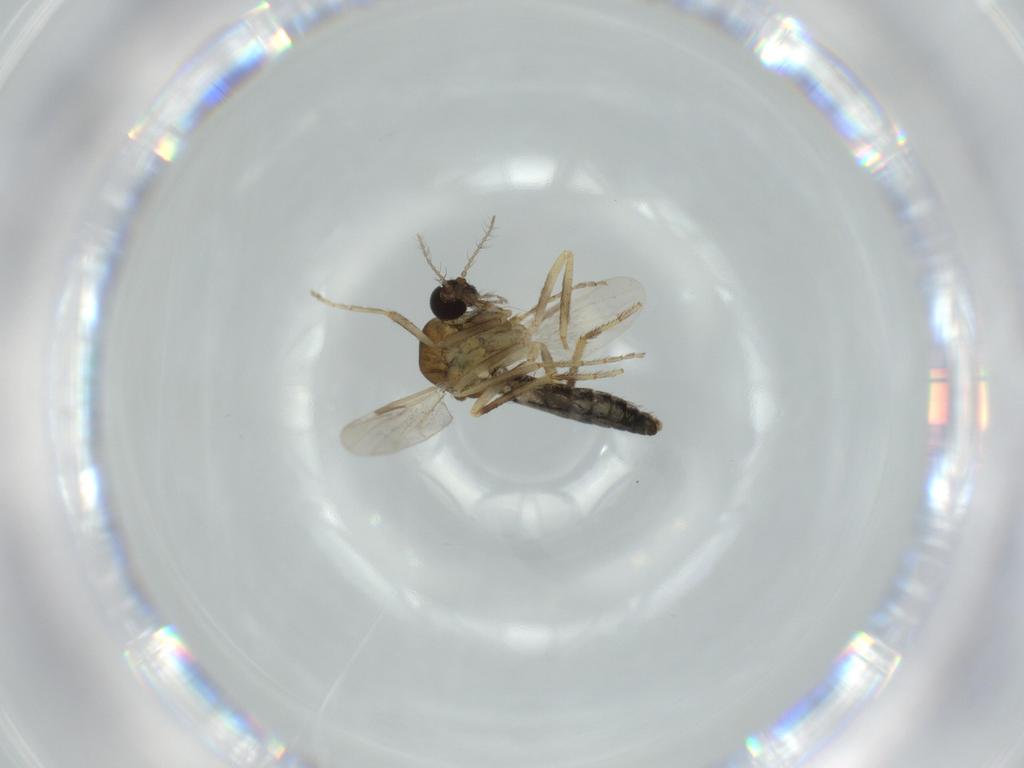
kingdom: Animalia
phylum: Arthropoda
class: Insecta
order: Diptera
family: Ceratopogonidae
